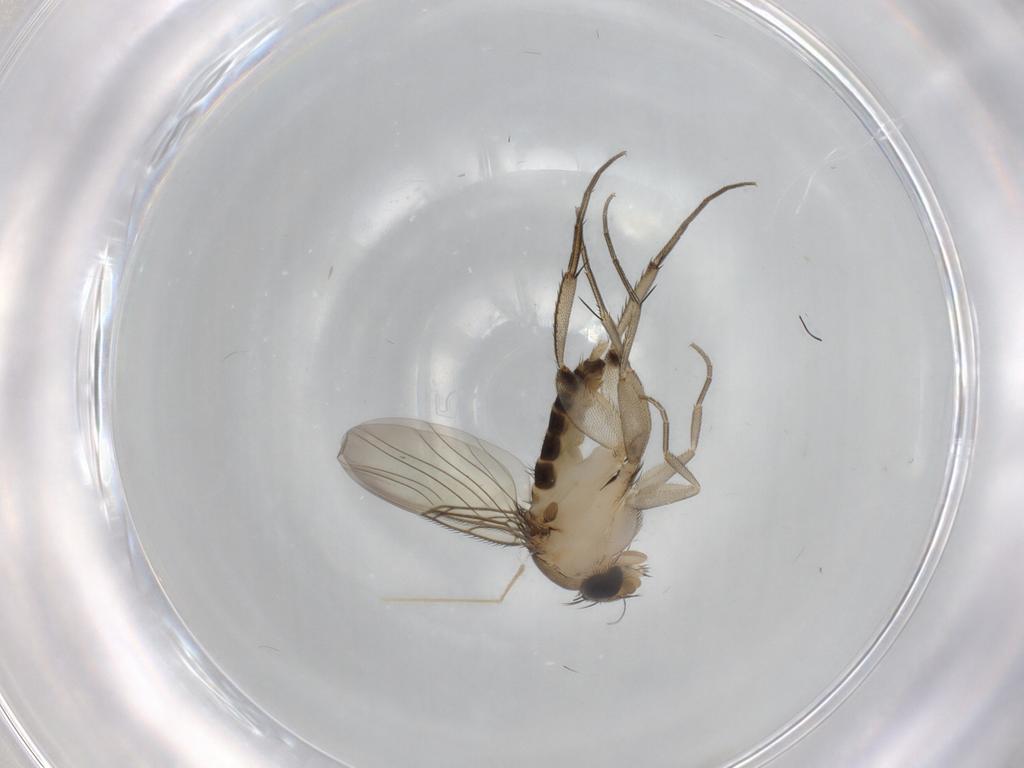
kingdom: Animalia
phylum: Arthropoda
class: Insecta
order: Diptera
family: Phoridae
